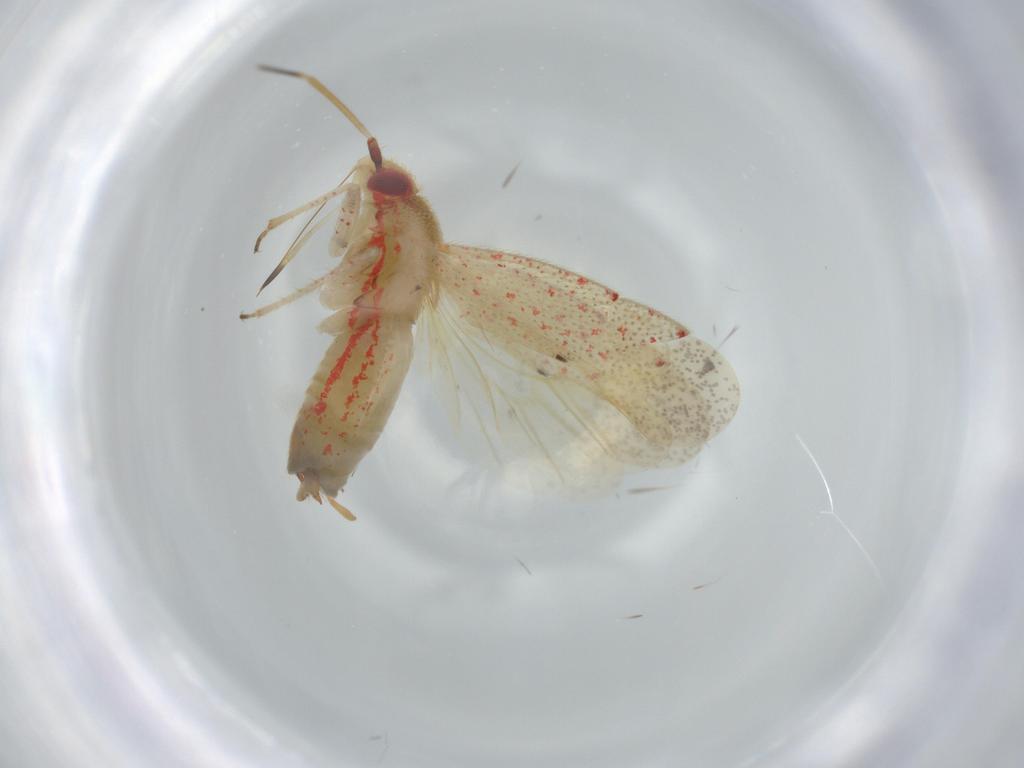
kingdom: Animalia
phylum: Arthropoda
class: Insecta
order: Hemiptera
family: Miridae
